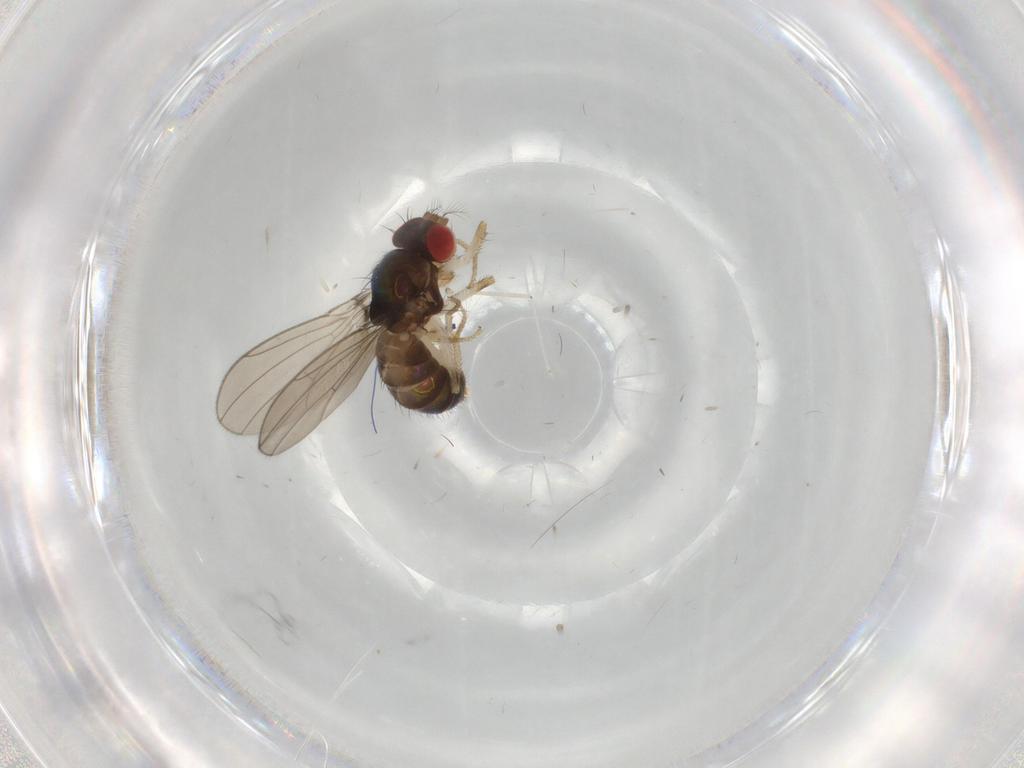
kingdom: Animalia
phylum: Arthropoda
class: Insecta
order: Diptera
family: Drosophilidae
